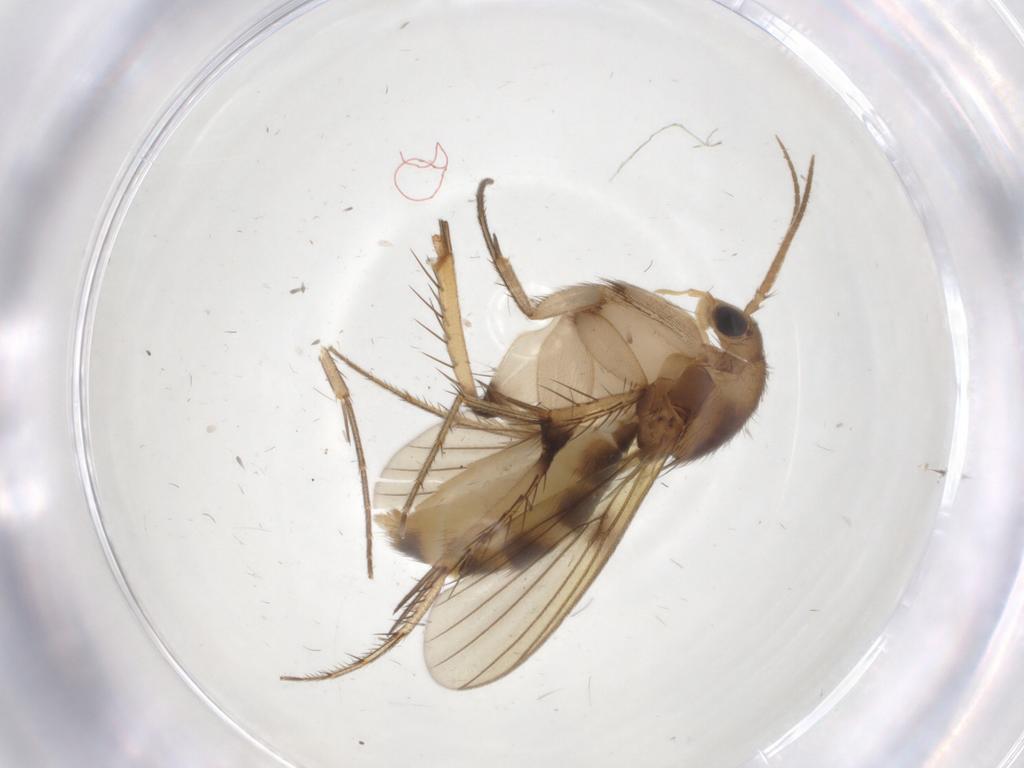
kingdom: Animalia
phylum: Arthropoda
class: Insecta
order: Diptera
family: Mycetophilidae
